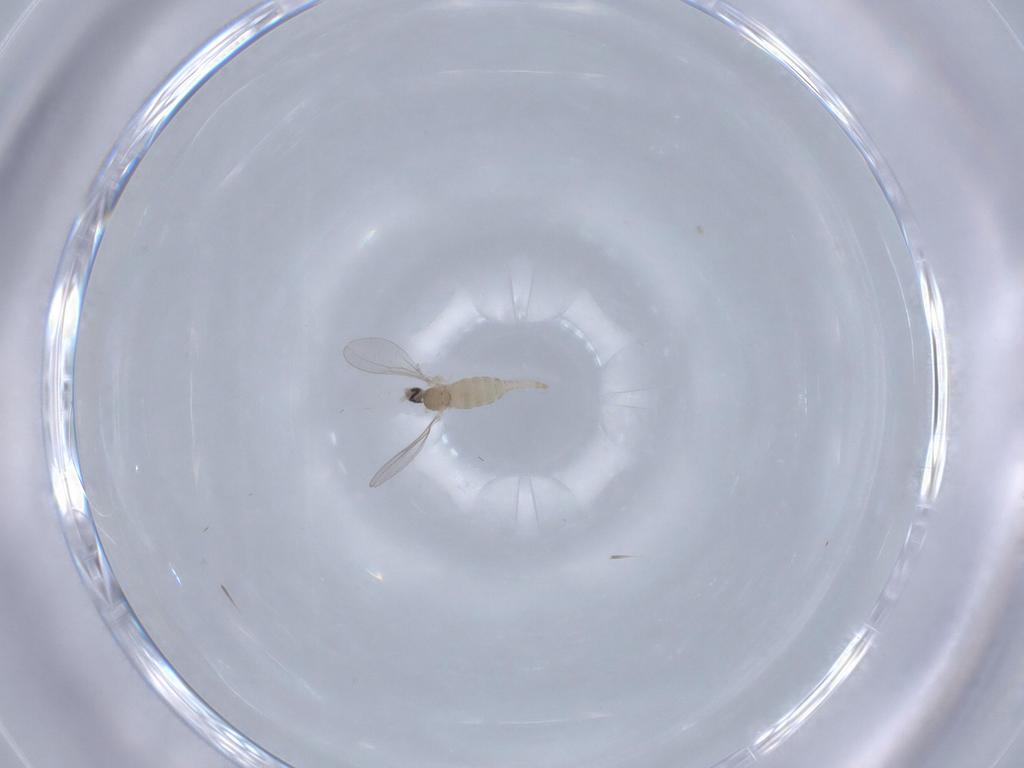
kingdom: Animalia
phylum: Arthropoda
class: Insecta
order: Diptera
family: Cecidomyiidae
